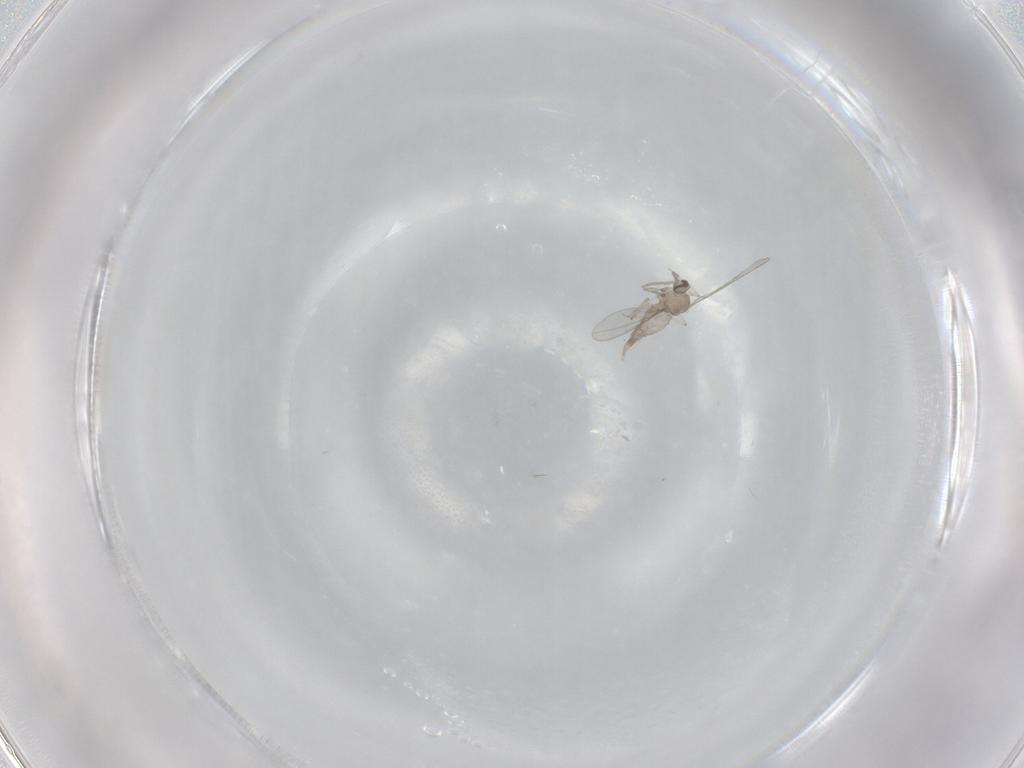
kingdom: Animalia
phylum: Arthropoda
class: Insecta
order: Diptera
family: Cecidomyiidae
